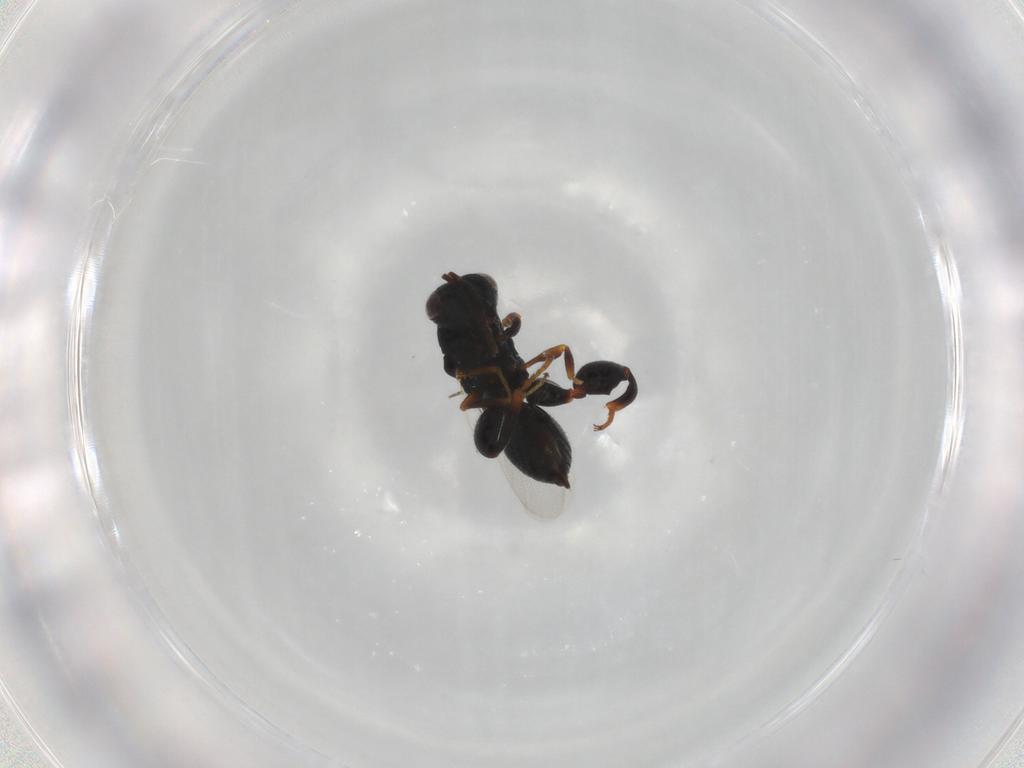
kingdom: Animalia
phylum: Arthropoda
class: Insecta
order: Hymenoptera
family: Chalcididae
